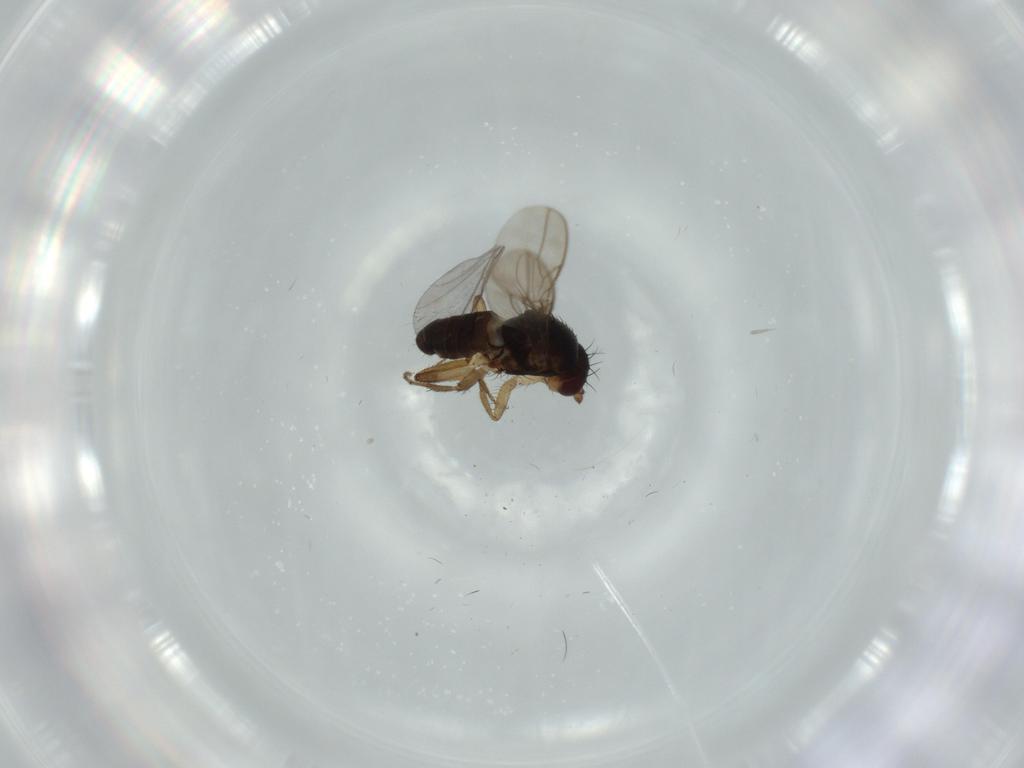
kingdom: Animalia
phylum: Arthropoda
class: Insecta
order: Diptera
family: Sphaeroceridae
